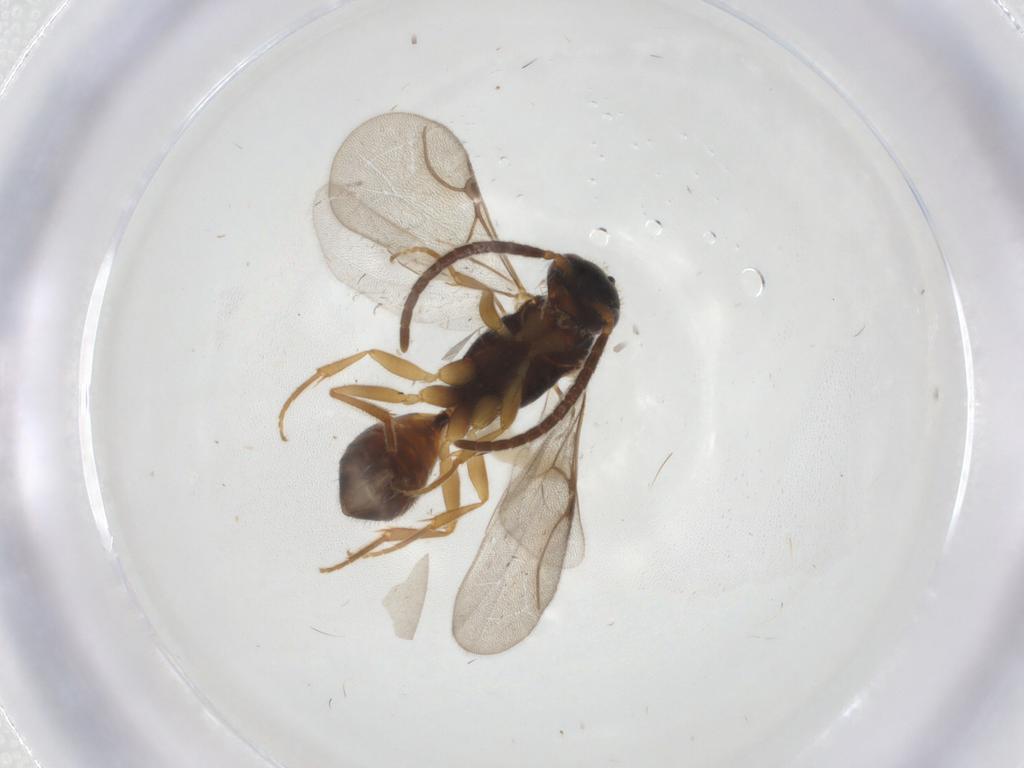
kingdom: Animalia
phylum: Arthropoda
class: Insecta
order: Hymenoptera
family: Bethylidae
